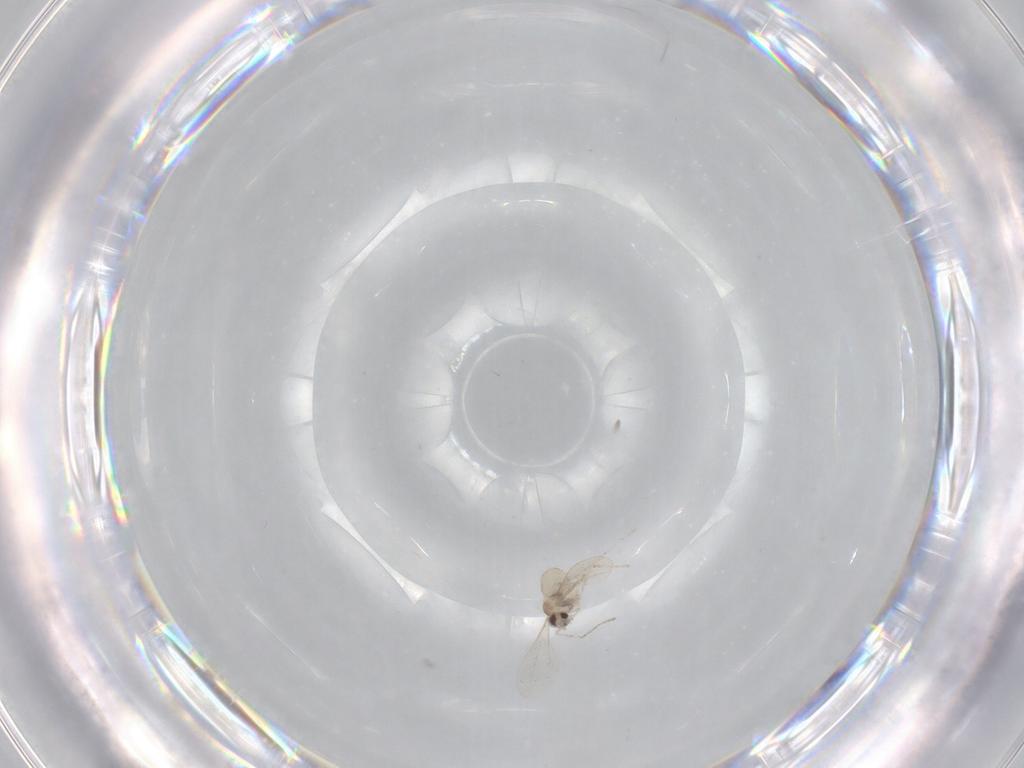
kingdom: Animalia
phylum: Arthropoda
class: Insecta
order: Diptera
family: Cecidomyiidae
